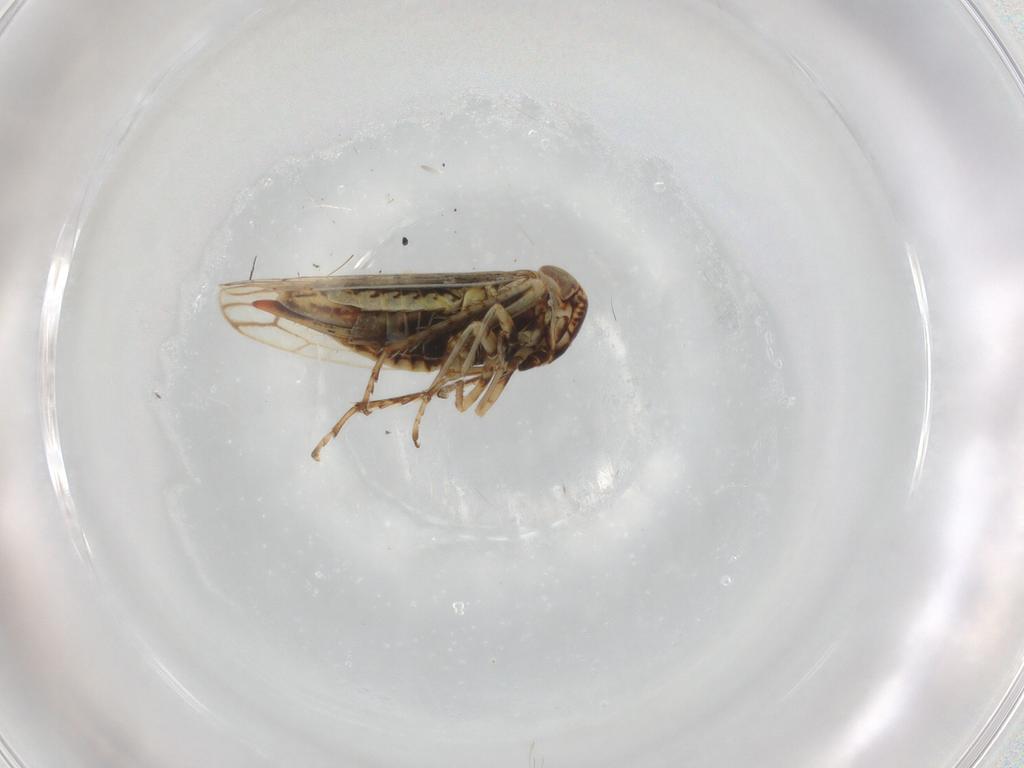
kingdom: Animalia
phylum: Arthropoda
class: Insecta
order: Hemiptera
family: Cicadellidae
